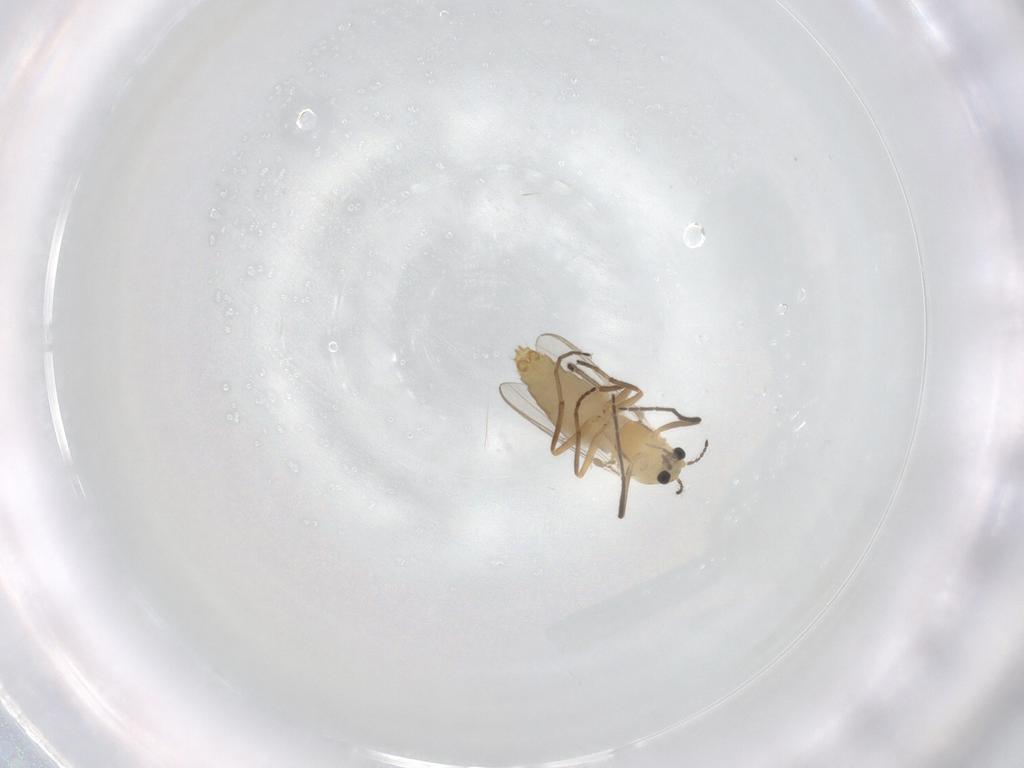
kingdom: Animalia
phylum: Arthropoda
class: Insecta
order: Diptera
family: Chironomidae
